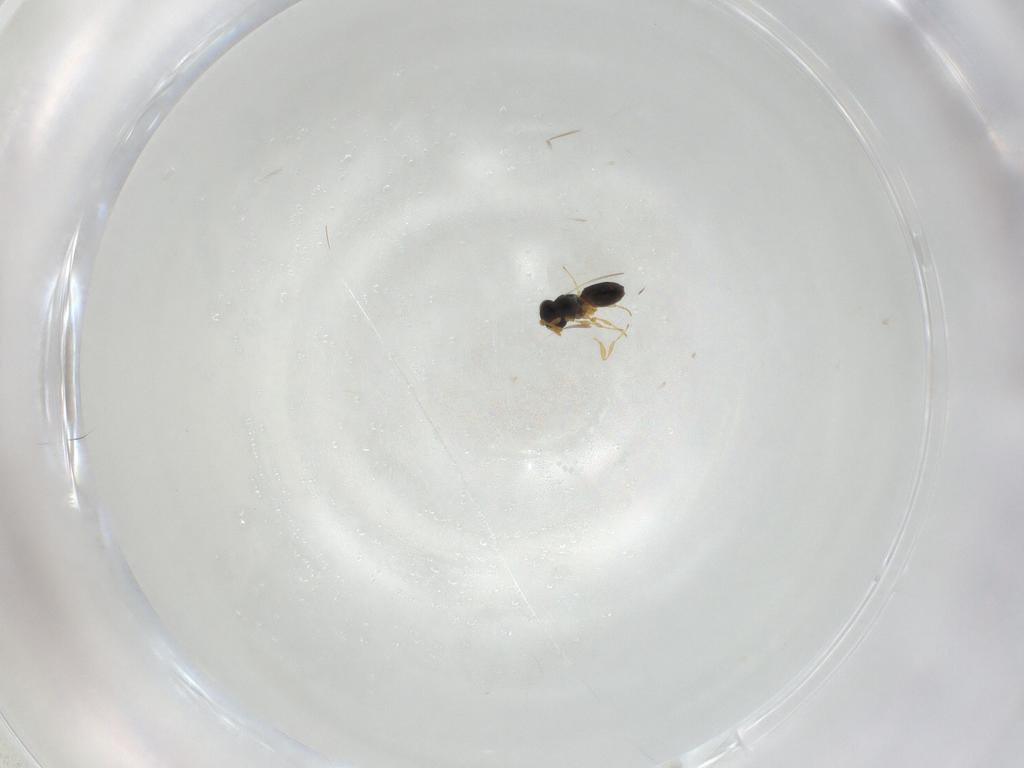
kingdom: Animalia
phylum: Arthropoda
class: Insecta
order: Hymenoptera
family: Platygastridae
